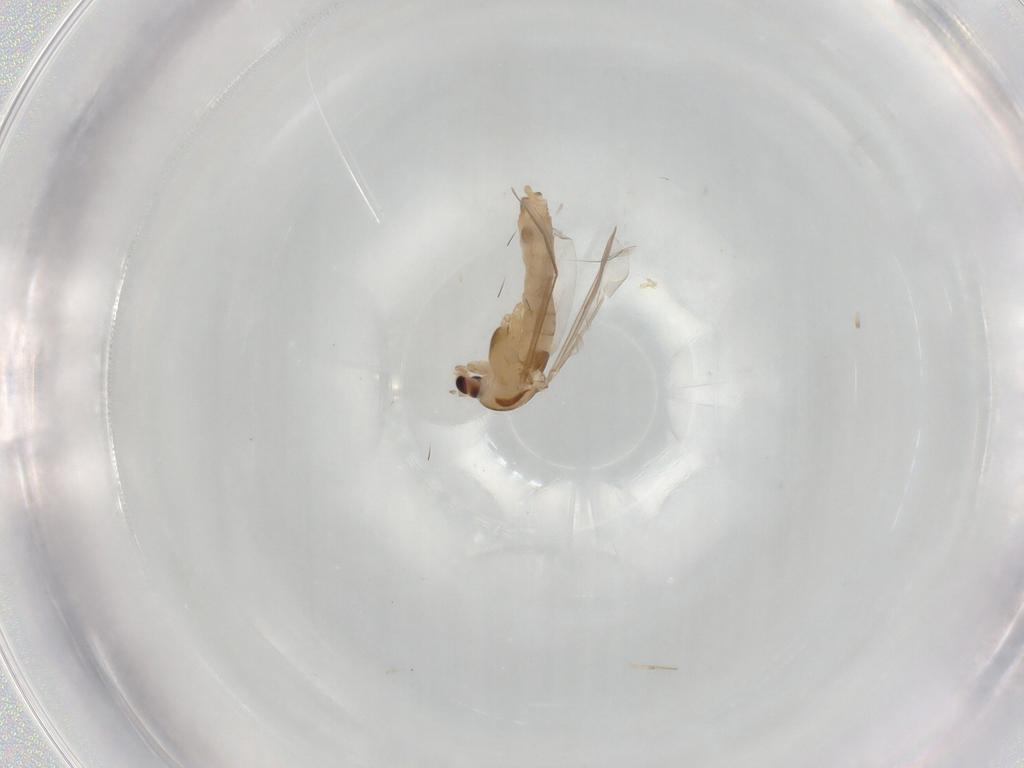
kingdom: Animalia
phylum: Arthropoda
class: Insecta
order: Diptera
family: Chironomidae
